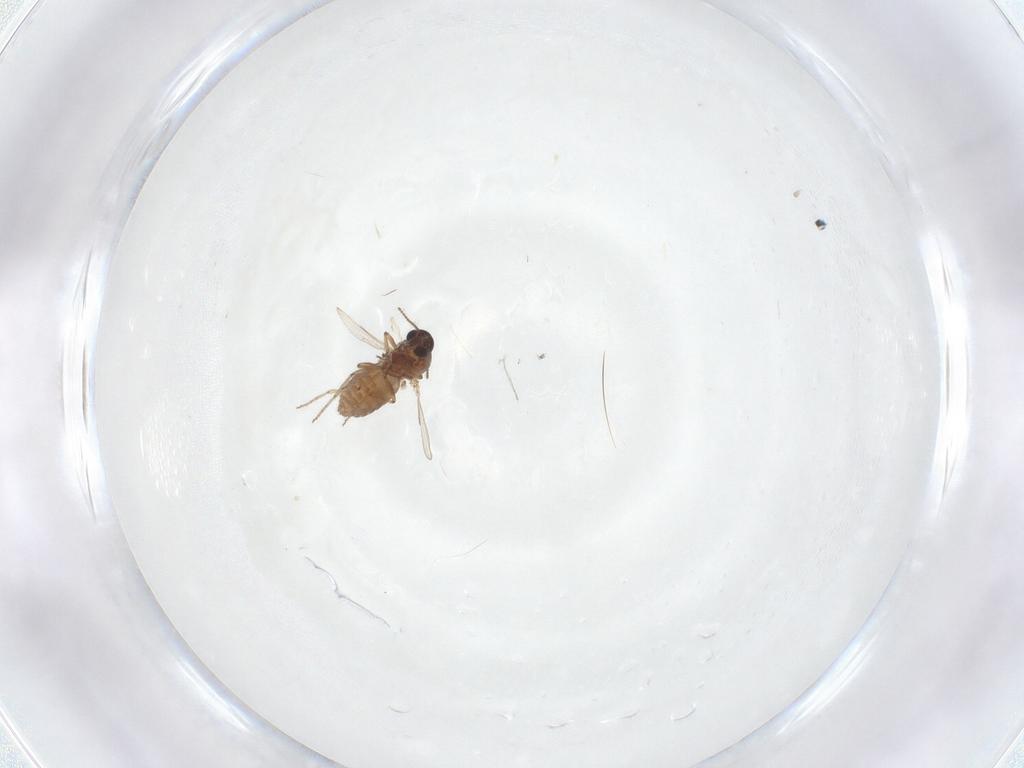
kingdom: Animalia
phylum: Arthropoda
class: Insecta
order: Diptera
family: Ceratopogonidae
